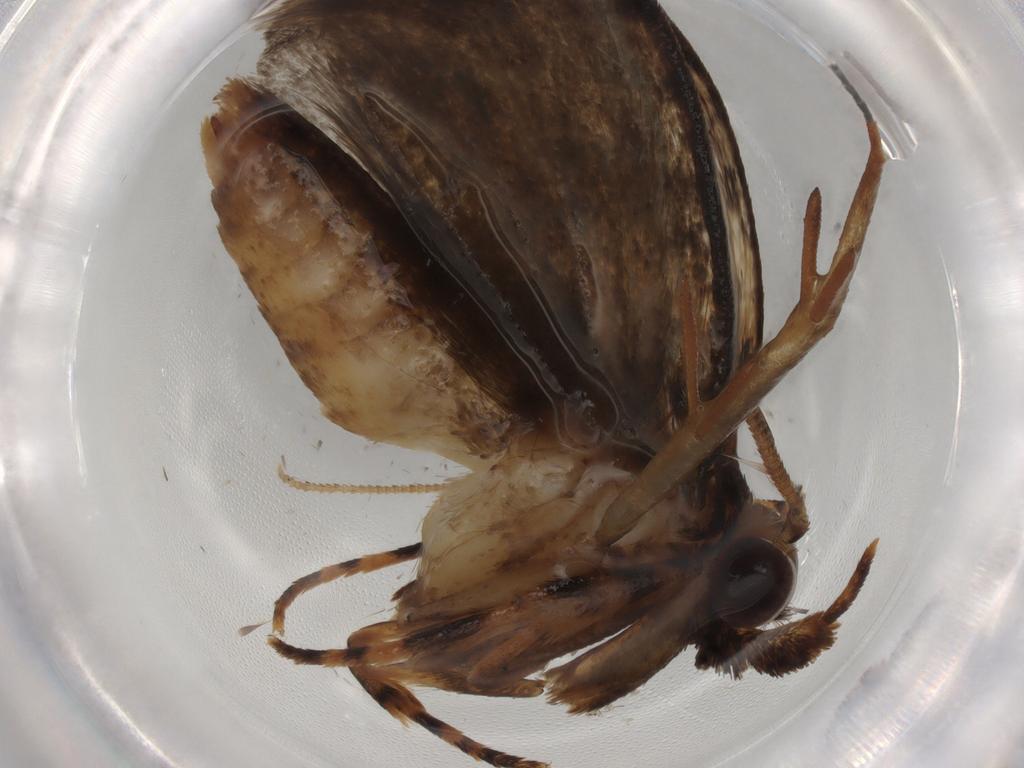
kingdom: Animalia
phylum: Arthropoda
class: Insecta
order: Lepidoptera
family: Tineidae
